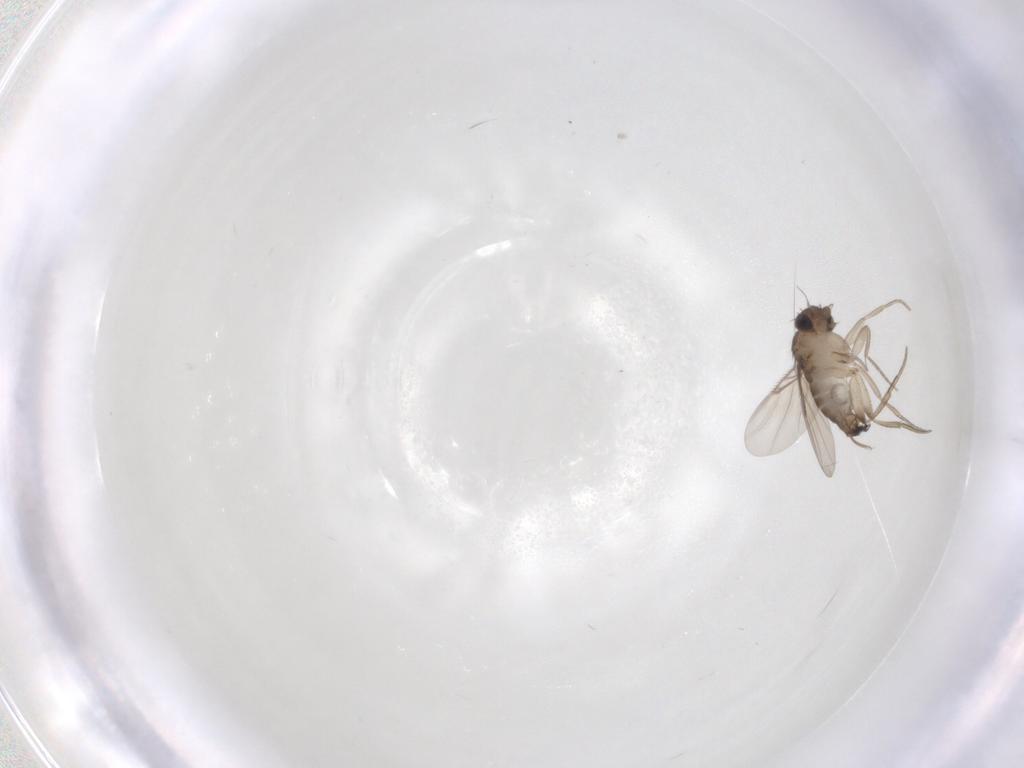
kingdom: Animalia
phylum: Arthropoda
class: Insecta
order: Diptera
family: Phoridae
